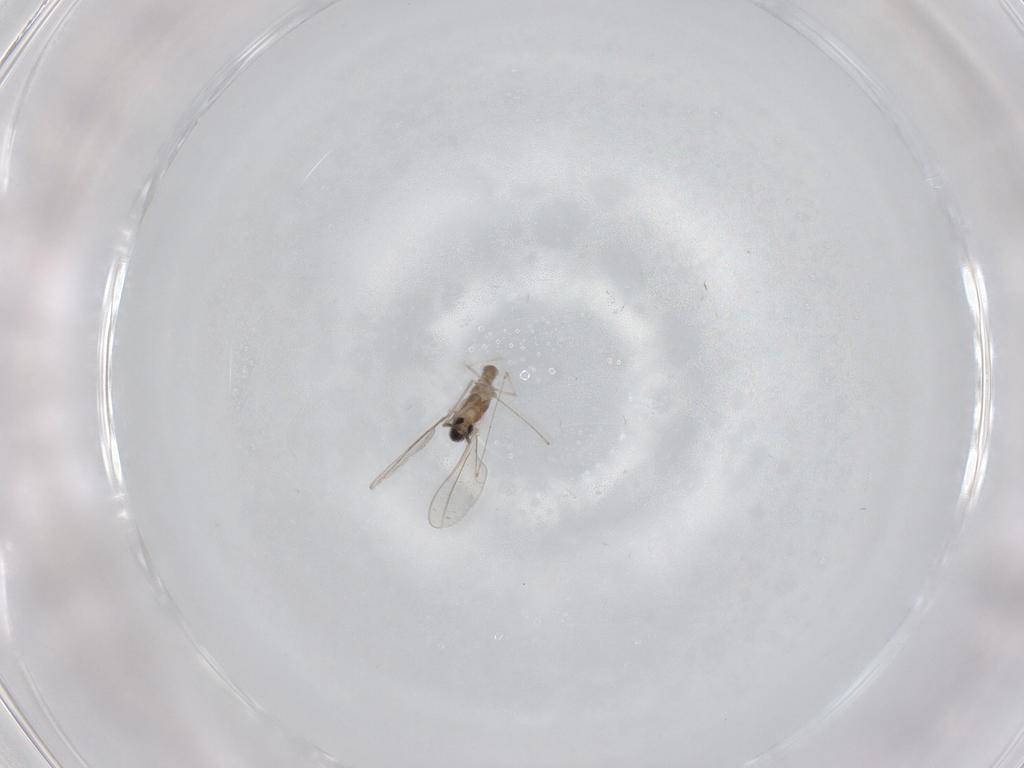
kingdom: Animalia
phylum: Arthropoda
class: Insecta
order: Diptera
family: Cecidomyiidae
